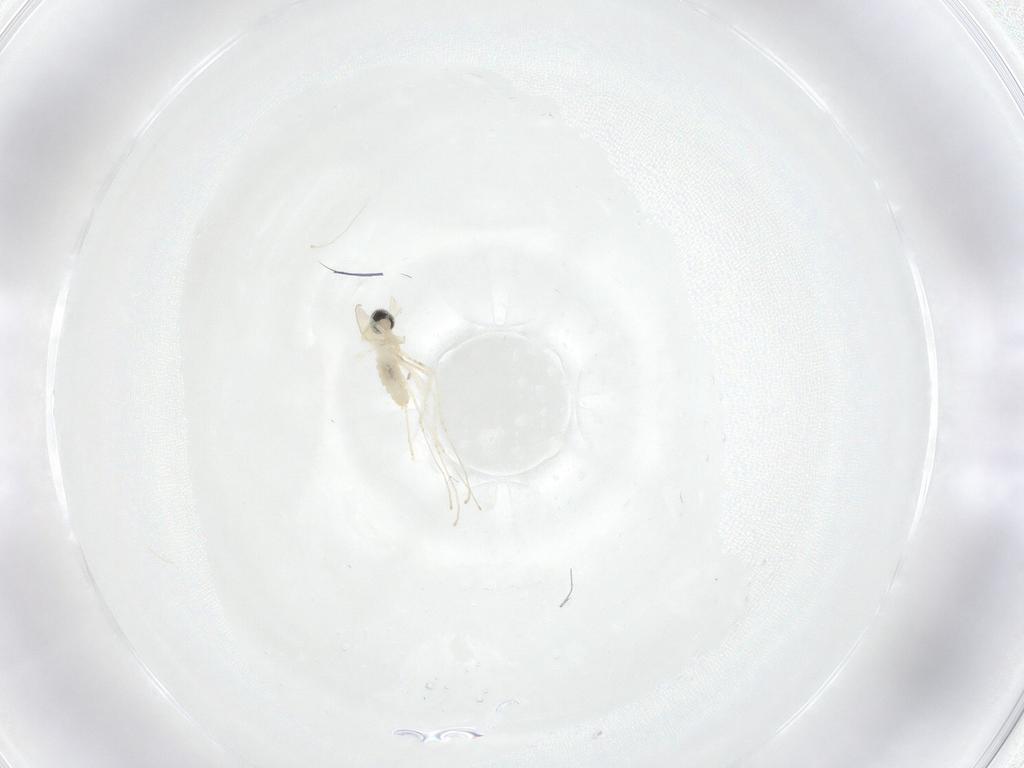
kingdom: Animalia
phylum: Arthropoda
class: Insecta
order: Diptera
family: Cecidomyiidae
